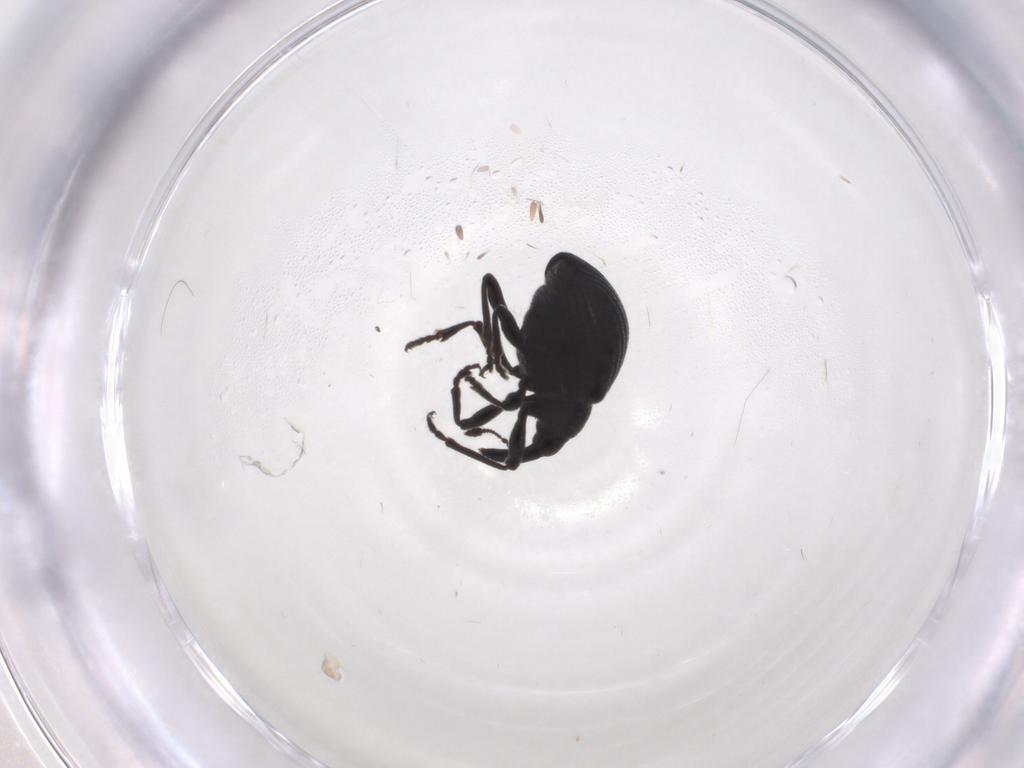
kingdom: Animalia
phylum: Arthropoda
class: Insecta
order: Coleoptera
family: Brentidae
